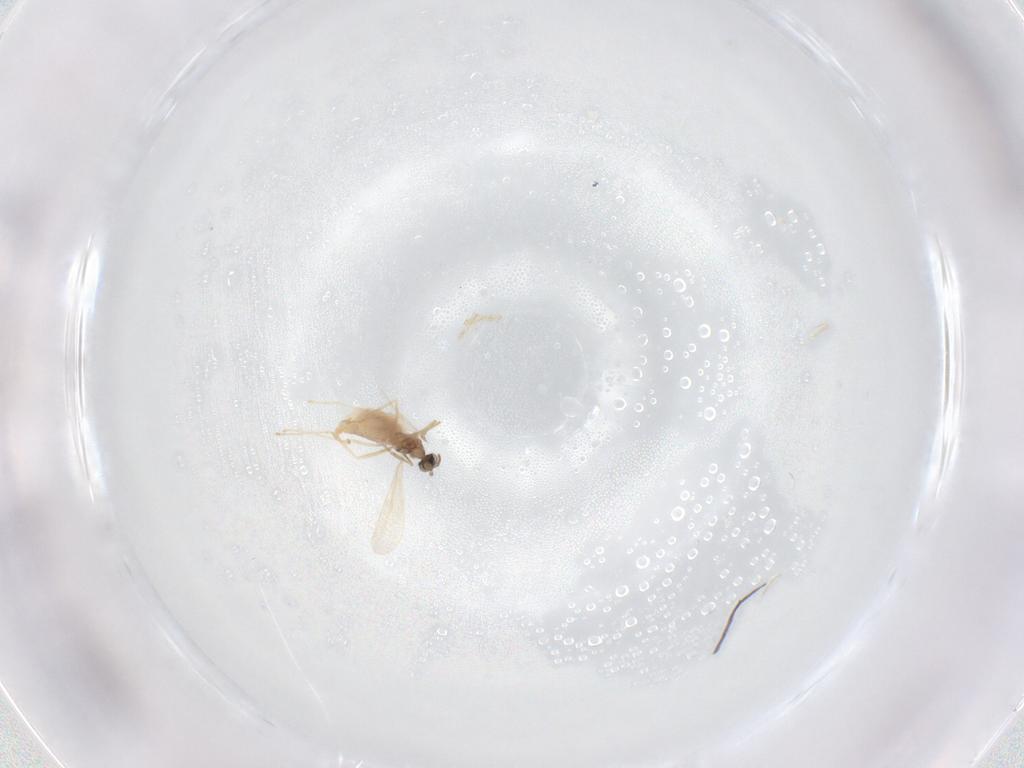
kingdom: Animalia
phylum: Arthropoda
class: Insecta
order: Diptera
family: Cecidomyiidae
